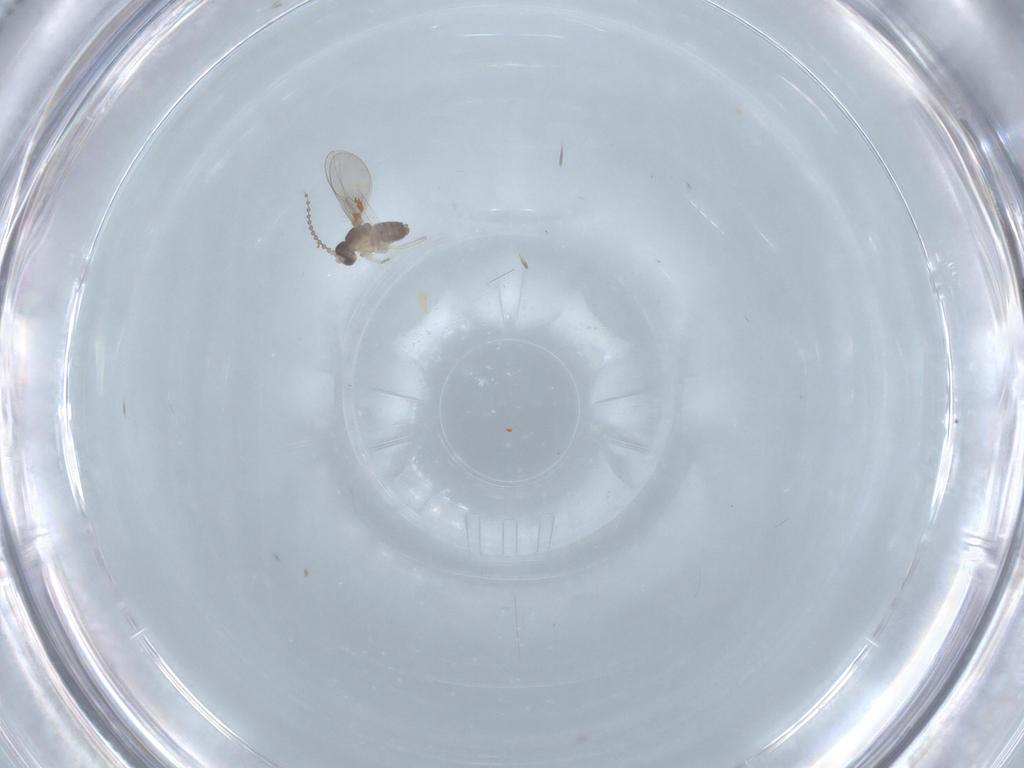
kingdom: Animalia
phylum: Arthropoda
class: Insecta
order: Diptera
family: Cecidomyiidae
